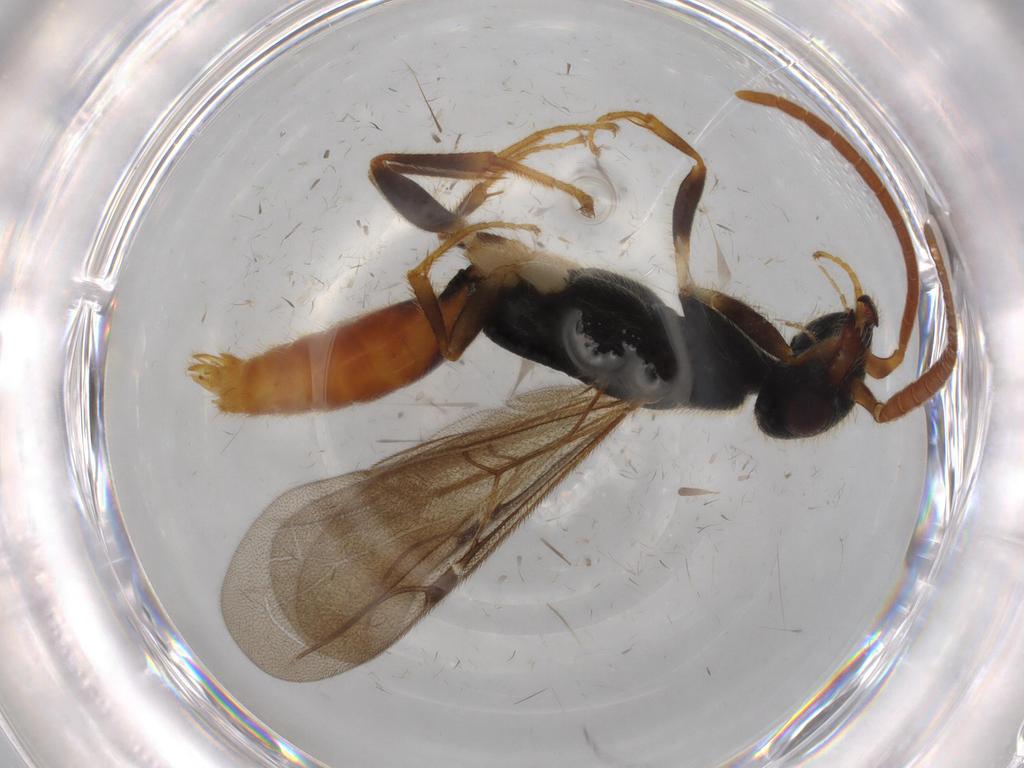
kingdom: Animalia
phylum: Arthropoda
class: Insecta
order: Hymenoptera
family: Bethylidae
